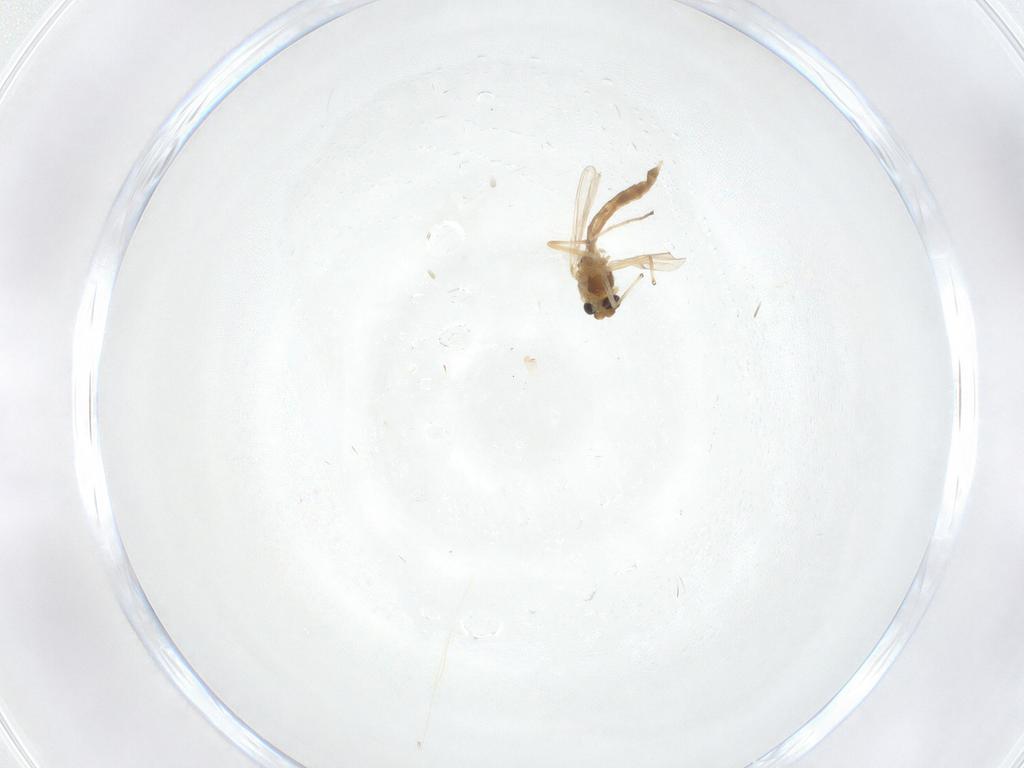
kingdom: Animalia
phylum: Arthropoda
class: Insecta
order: Diptera
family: Chironomidae
